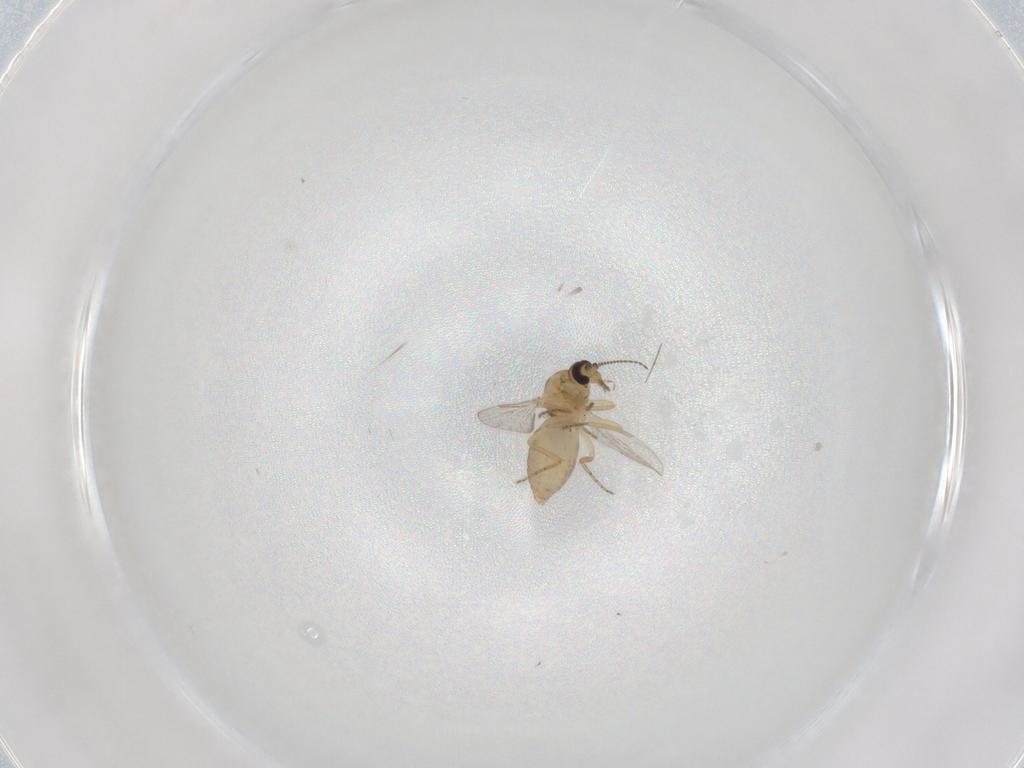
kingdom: Animalia
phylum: Arthropoda
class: Insecta
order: Diptera
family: Ceratopogonidae
